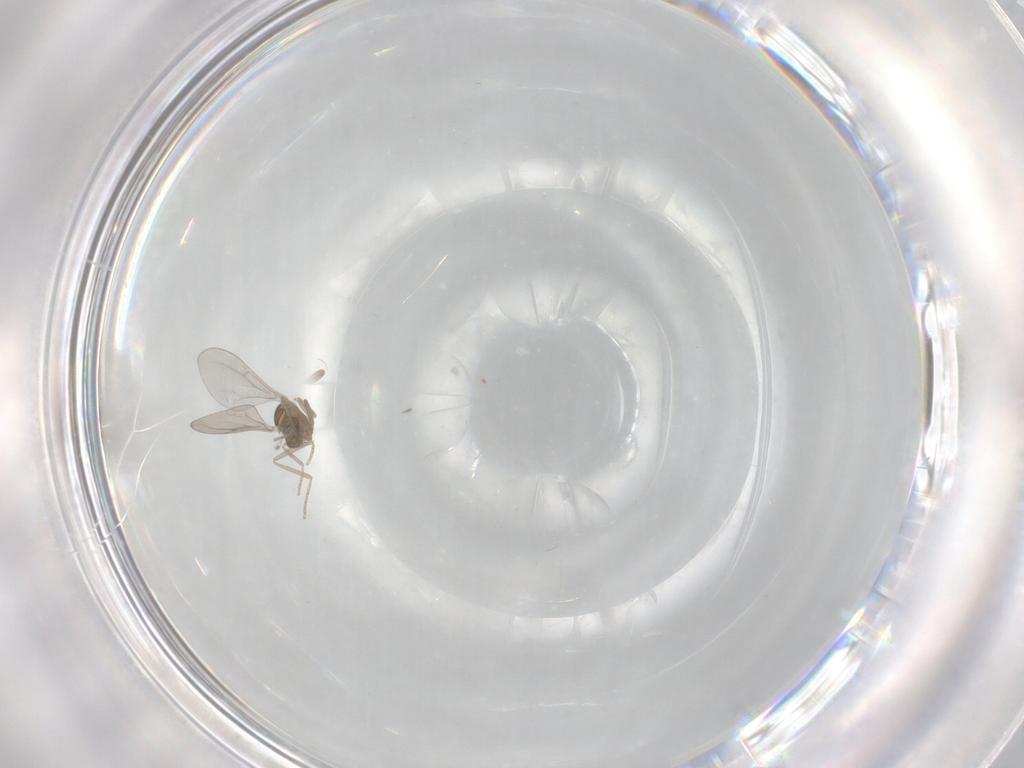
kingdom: Animalia
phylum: Arthropoda
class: Insecta
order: Diptera
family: Cecidomyiidae
